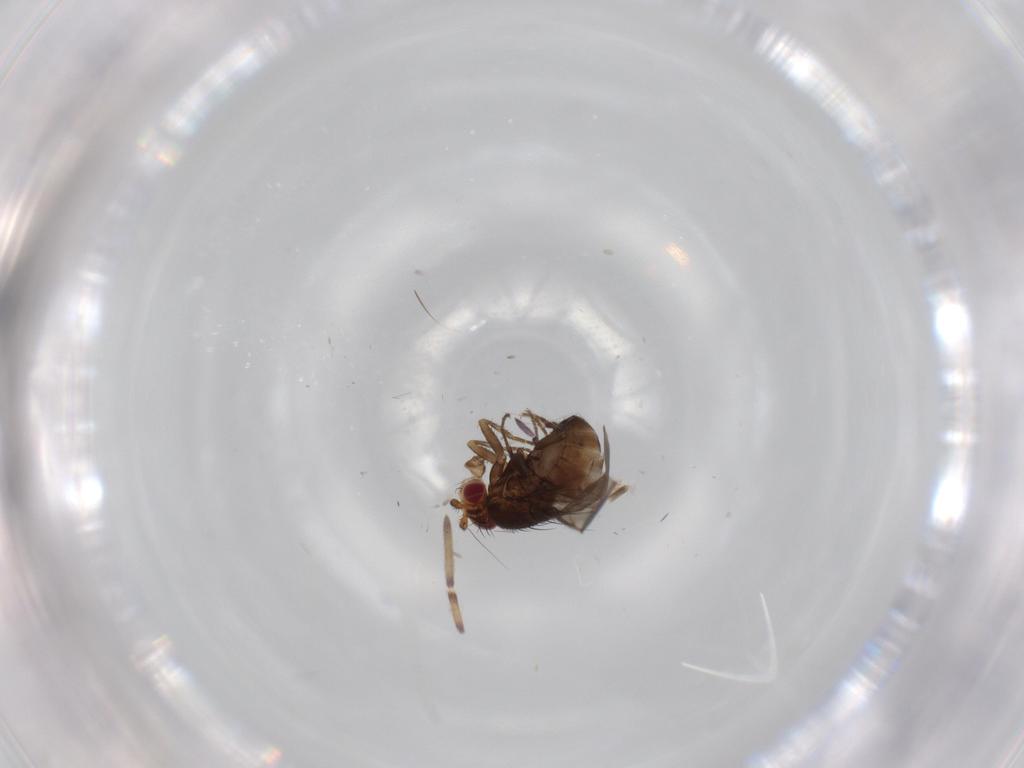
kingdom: Animalia
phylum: Arthropoda
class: Insecta
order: Diptera
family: Sphaeroceridae
